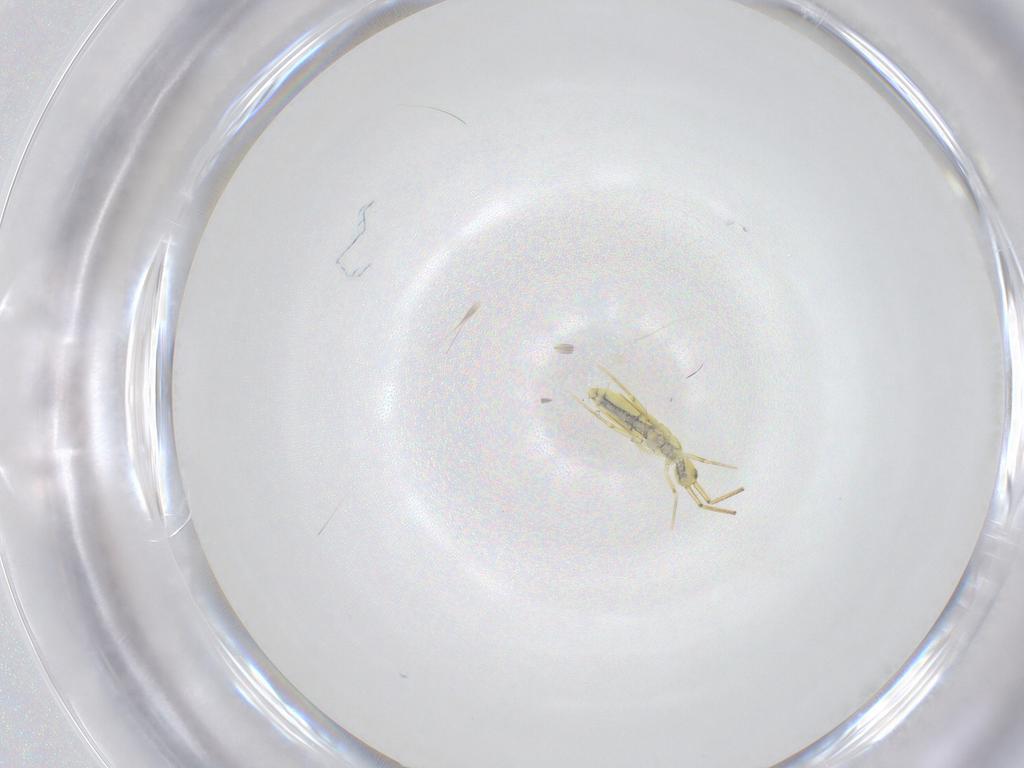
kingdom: Animalia
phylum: Arthropoda
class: Collembola
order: Entomobryomorpha
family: Entomobryidae
